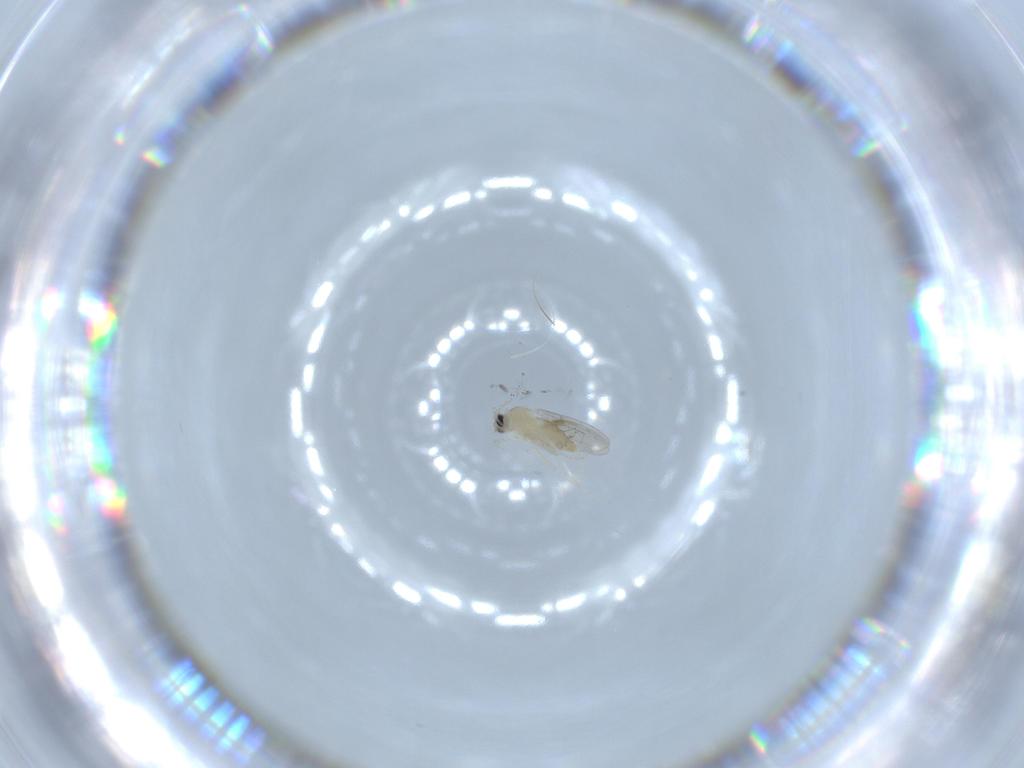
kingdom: Animalia
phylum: Arthropoda
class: Insecta
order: Diptera
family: Cecidomyiidae
